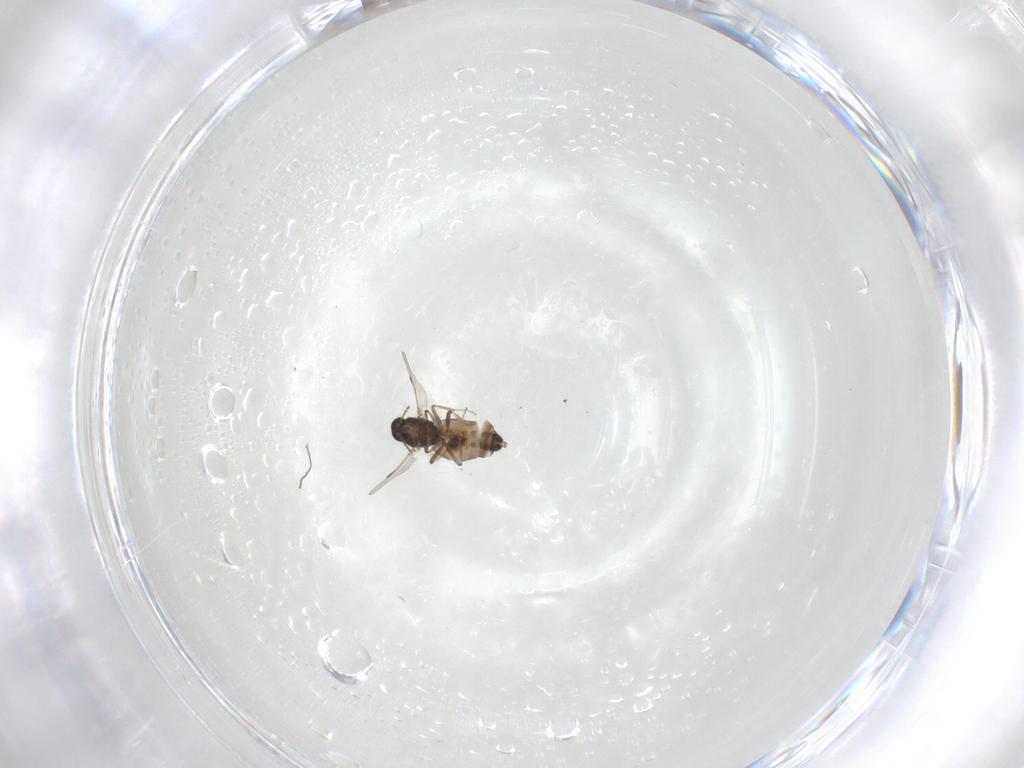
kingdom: Animalia
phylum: Arthropoda
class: Insecta
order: Diptera
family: Ceratopogonidae
